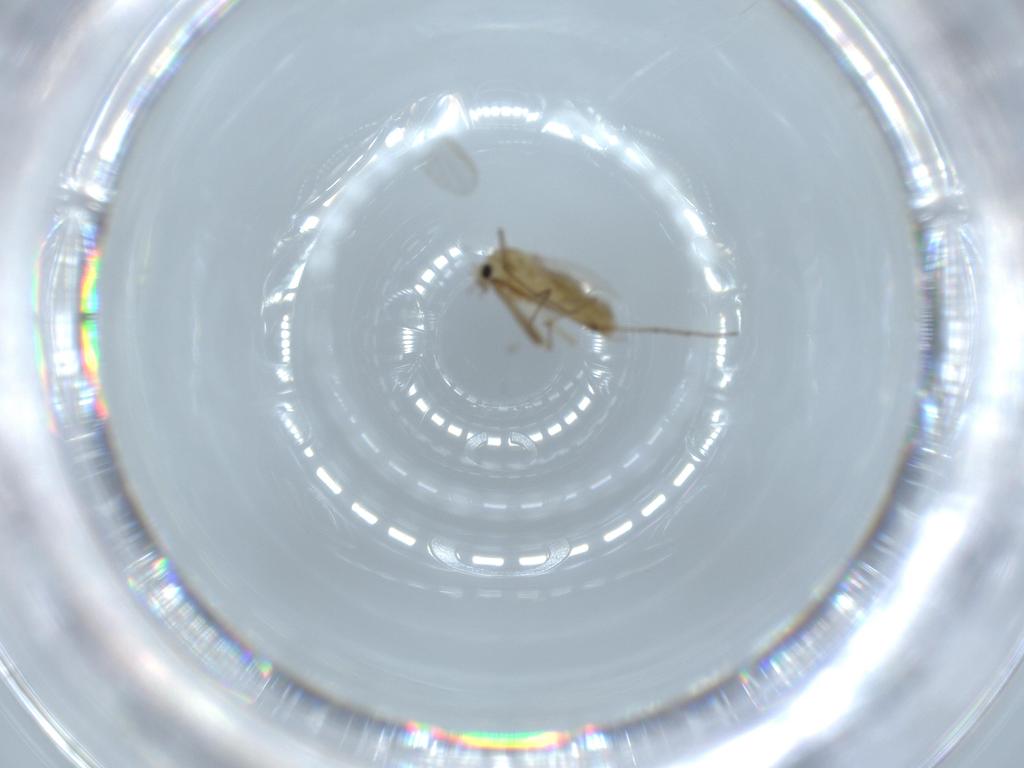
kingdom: Animalia
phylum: Arthropoda
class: Insecta
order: Diptera
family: Chironomidae
